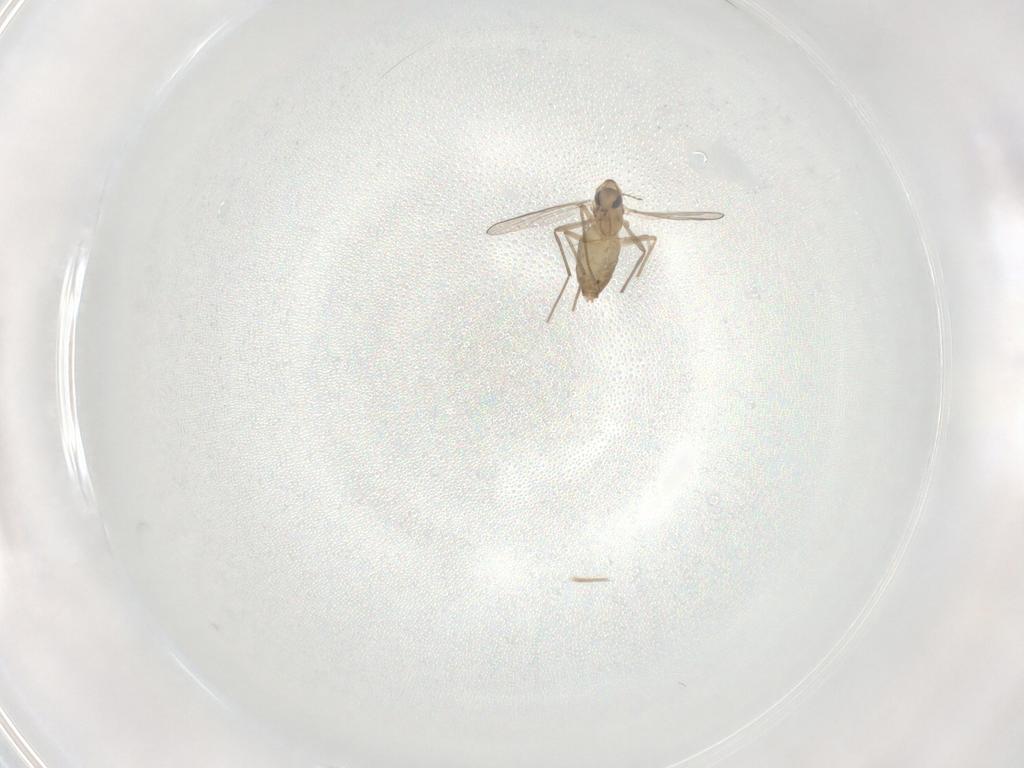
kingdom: Animalia
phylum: Arthropoda
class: Insecta
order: Diptera
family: Chironomidae
